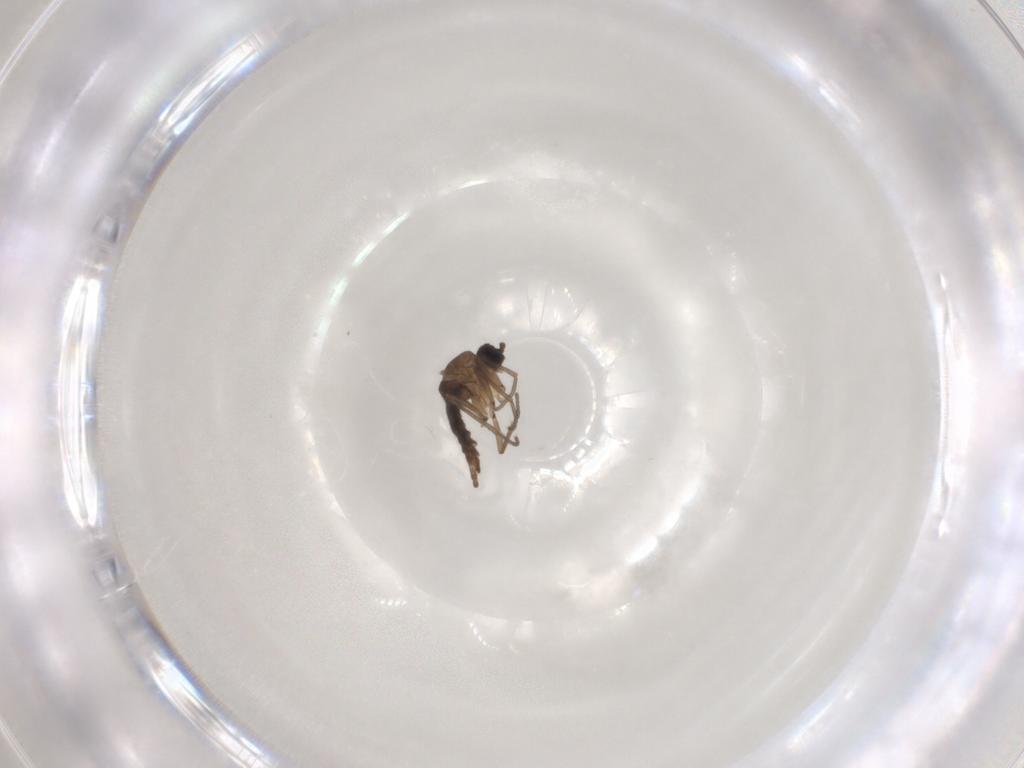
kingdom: Animalia
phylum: Arthropoda
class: Insecta
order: Diptera
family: Sciaridae
